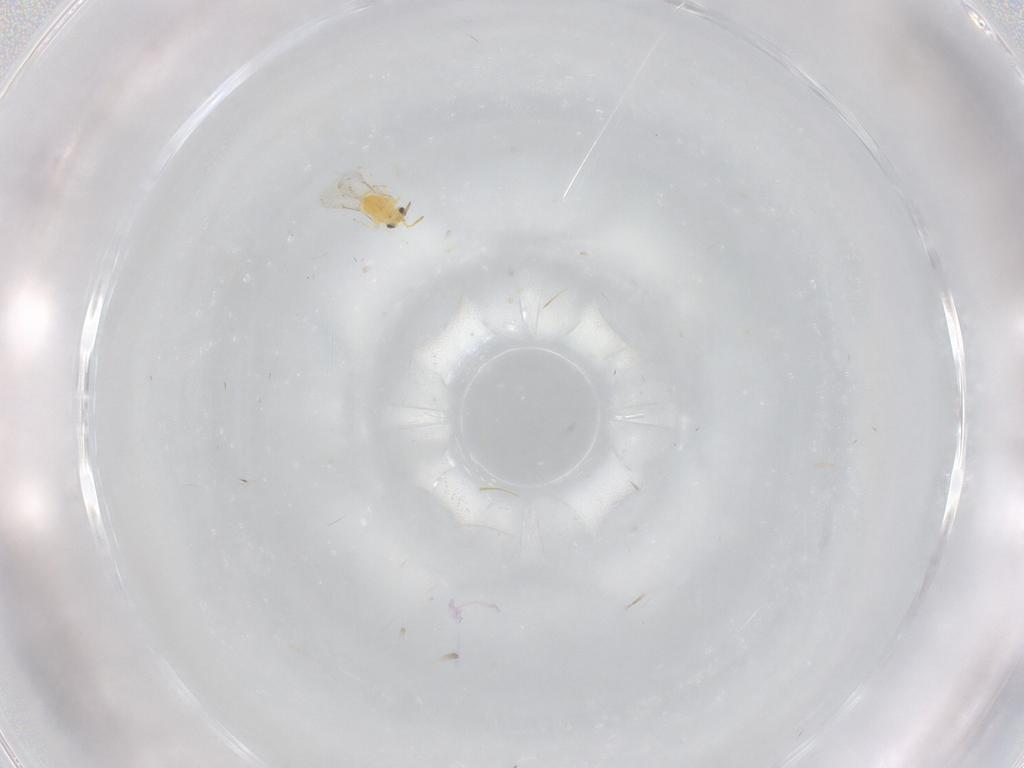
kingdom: Animalia
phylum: Arthropoda
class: Insecta
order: Hymenoptera
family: Aphelinidae
